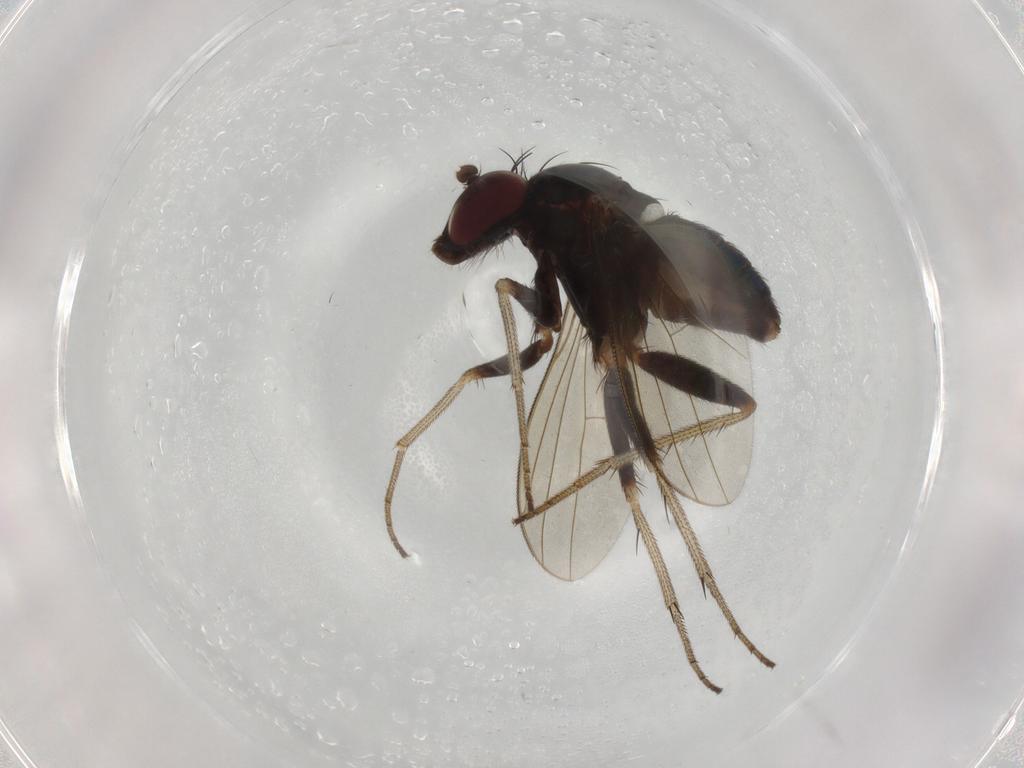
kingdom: Animalia
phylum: Arthropoda
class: Insecta
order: Diptera
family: Dolichopodidae
